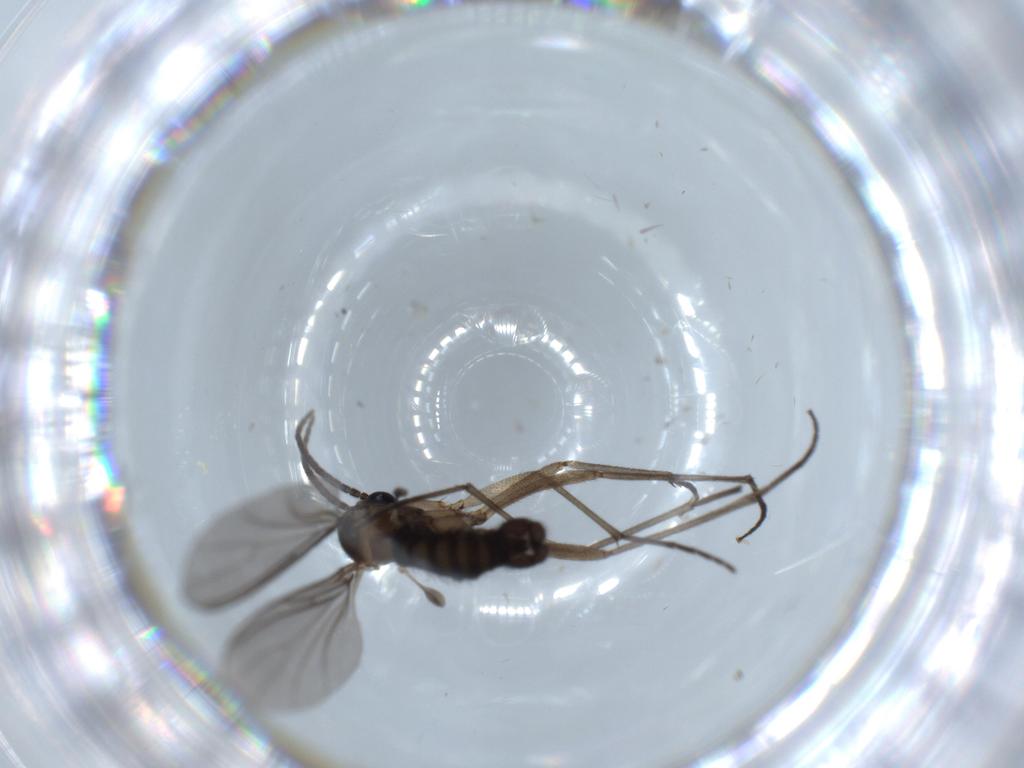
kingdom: Animalia
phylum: Arthropoda
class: Insecta
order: Diptera
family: Sciaridae
